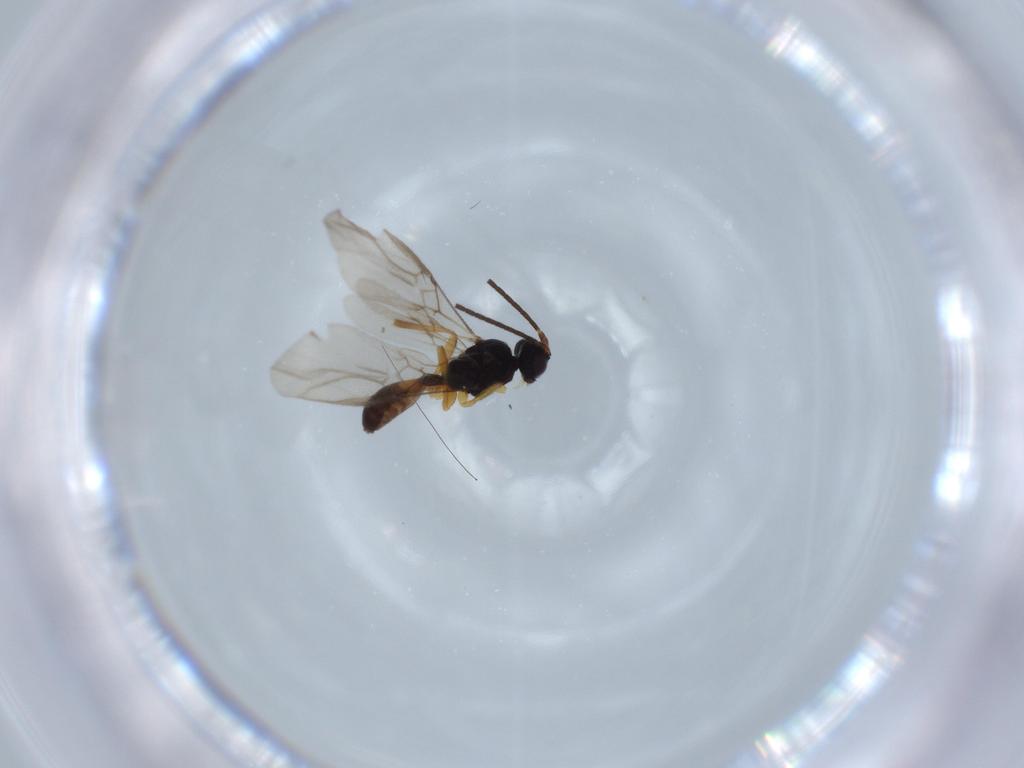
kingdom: Animalia
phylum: Arthropoda
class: Insecta
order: Hymenoptera
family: Braconidae
